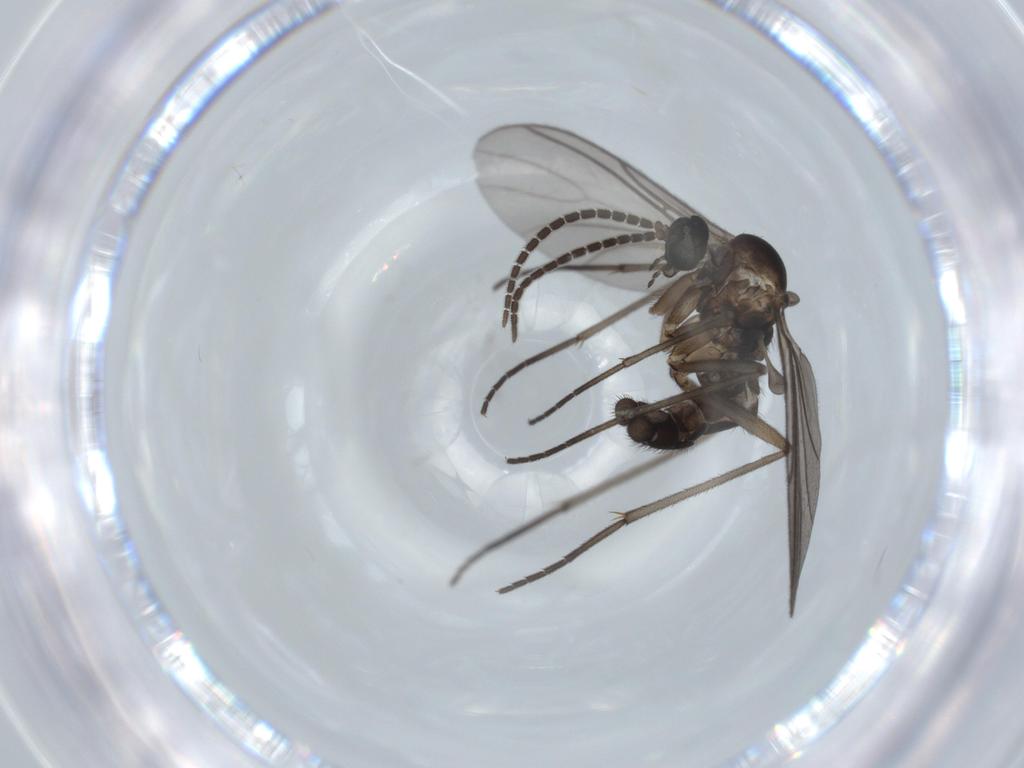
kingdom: Animalia
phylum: Arthropoda
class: Insecta
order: Diptera
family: Sciaridae
